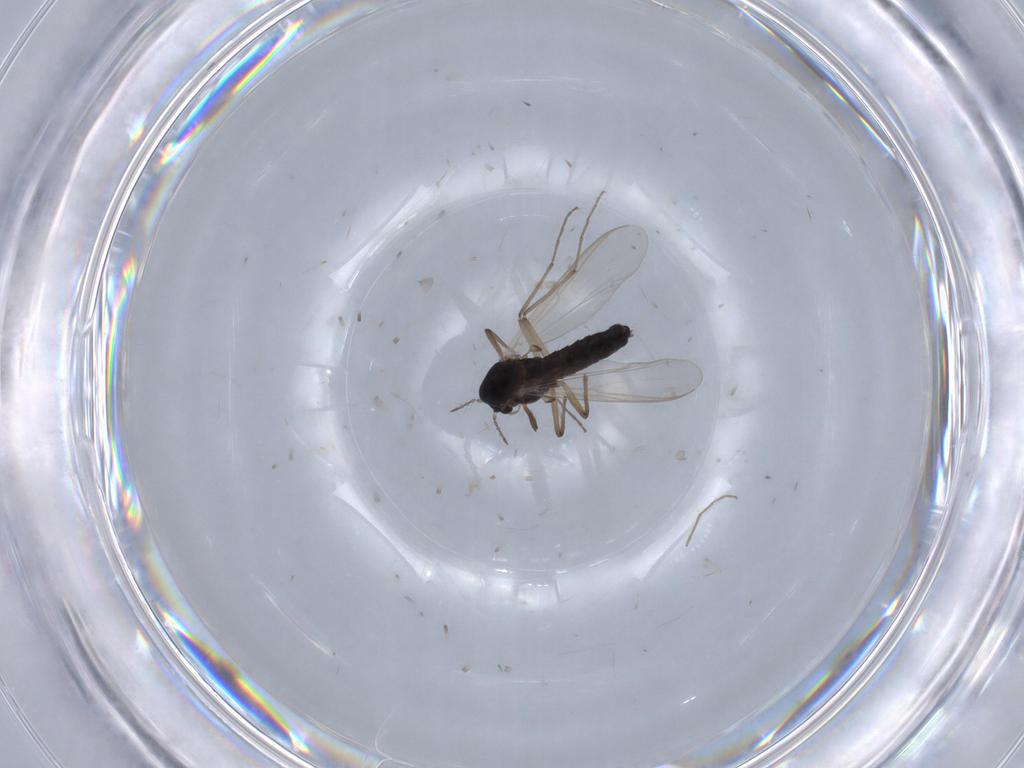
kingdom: Animalia
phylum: Arthropoda
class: Insecta
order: Diptera
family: Chironomidae
